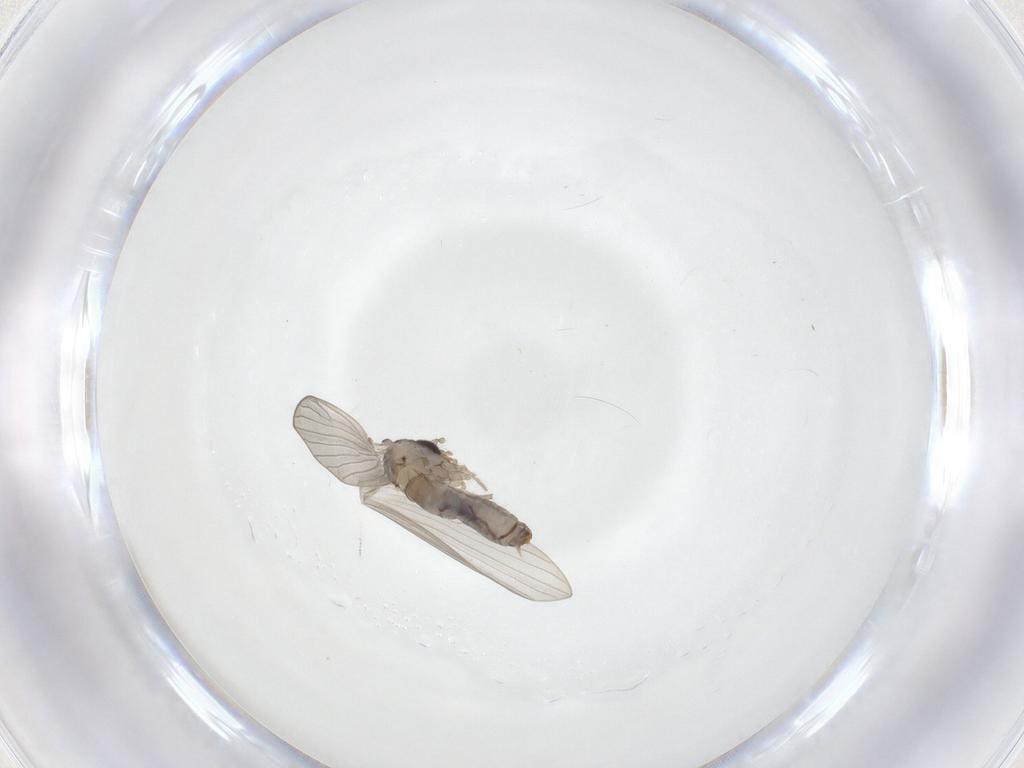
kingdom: Animalia
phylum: Arthropoda
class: Insecta
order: Diptera
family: Psychodidae
